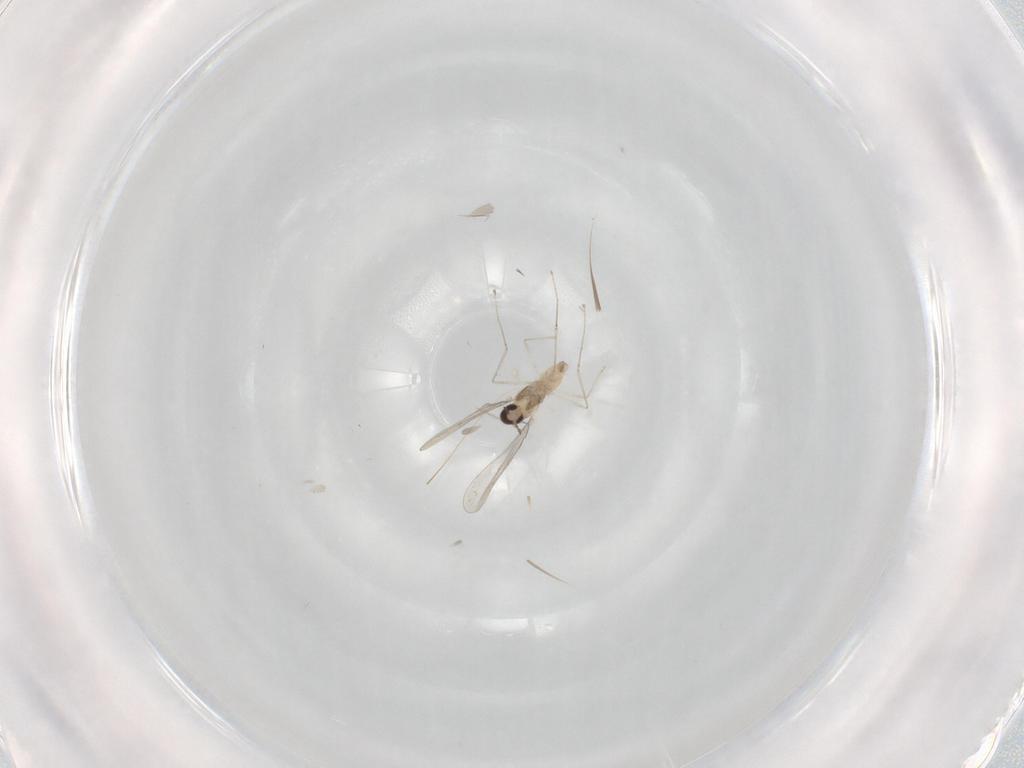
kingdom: Animalia
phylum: Arthropoda
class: Insecta
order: Diptera
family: Cecidomyiidae
